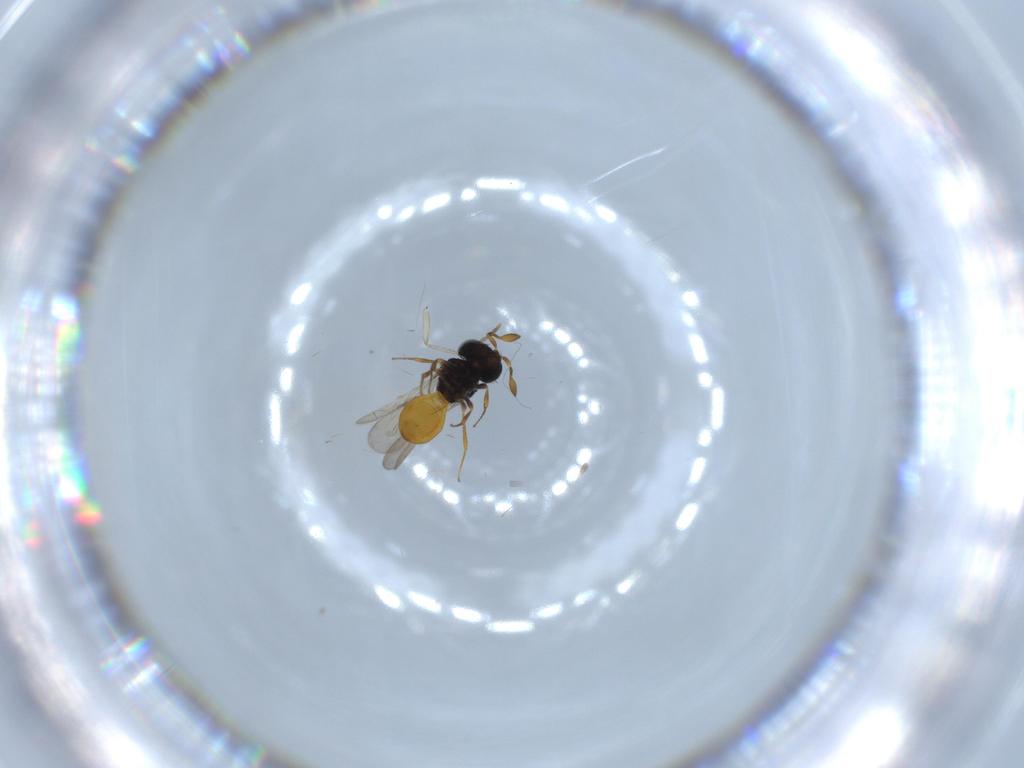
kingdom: Animalia
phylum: Arthropoda
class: Insecta
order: Hymenoptera
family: Scelionidae
